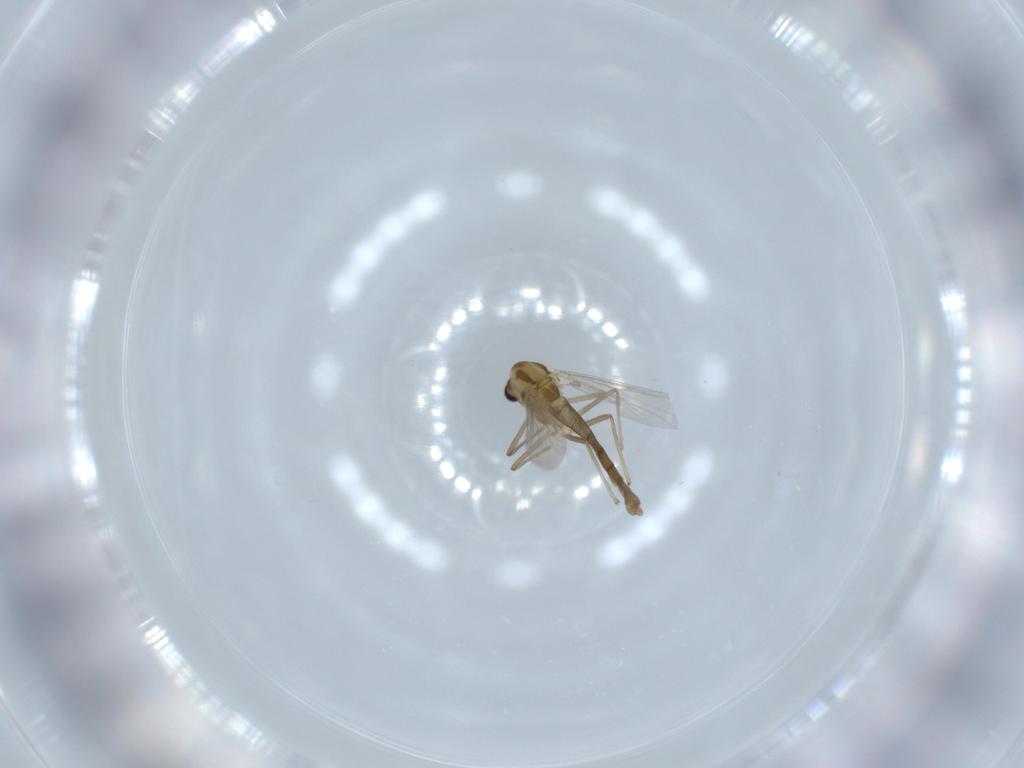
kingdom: Animalia
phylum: Arthropoda
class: Insecta
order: Diptera
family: Chironomidae
